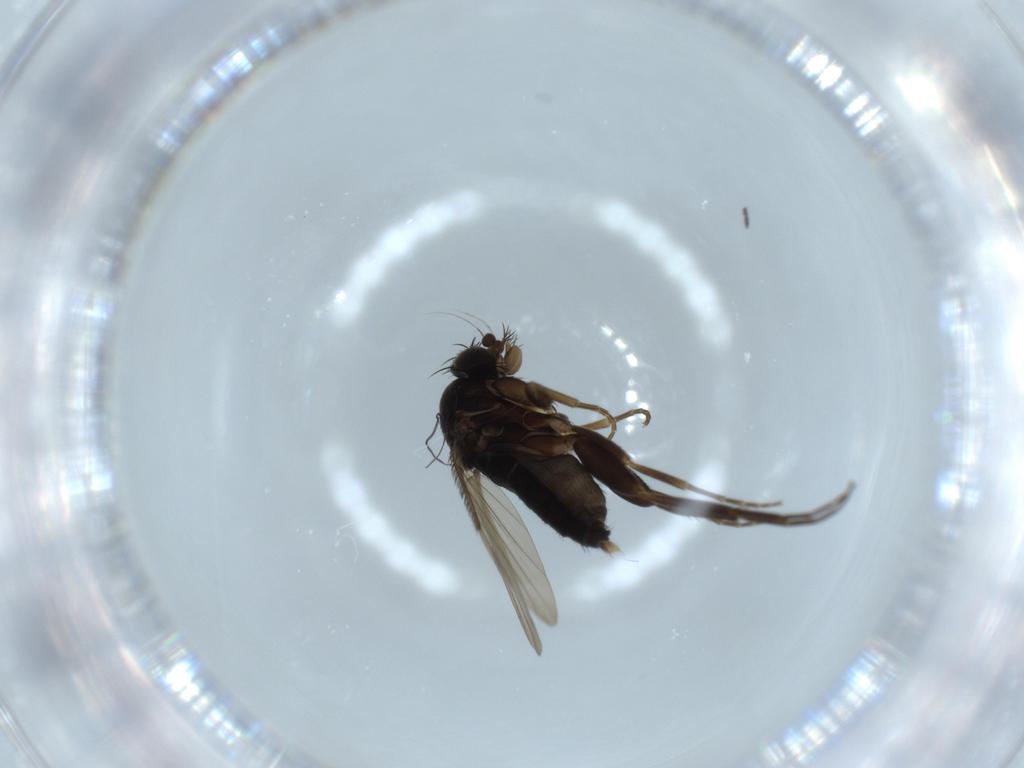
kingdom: Animalia
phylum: Arthropoda
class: Insecta
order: Diptera
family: Phoridae
